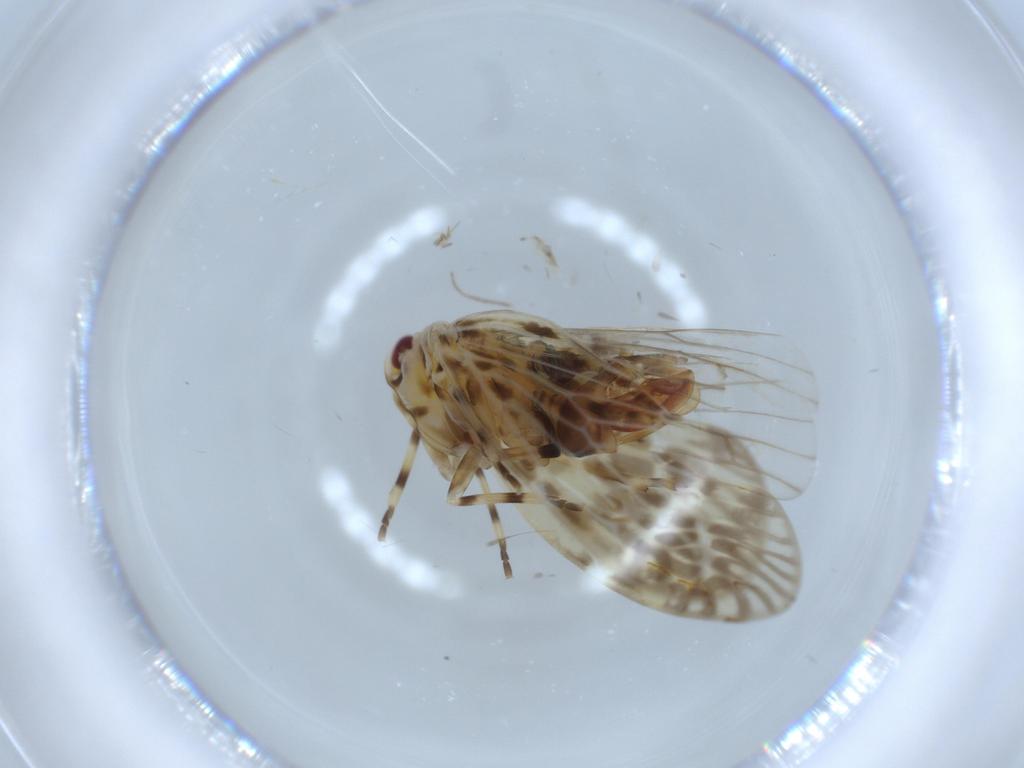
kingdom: Animalia
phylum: Arthropoda
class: Insecta
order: Hemiptera
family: Derbidae
